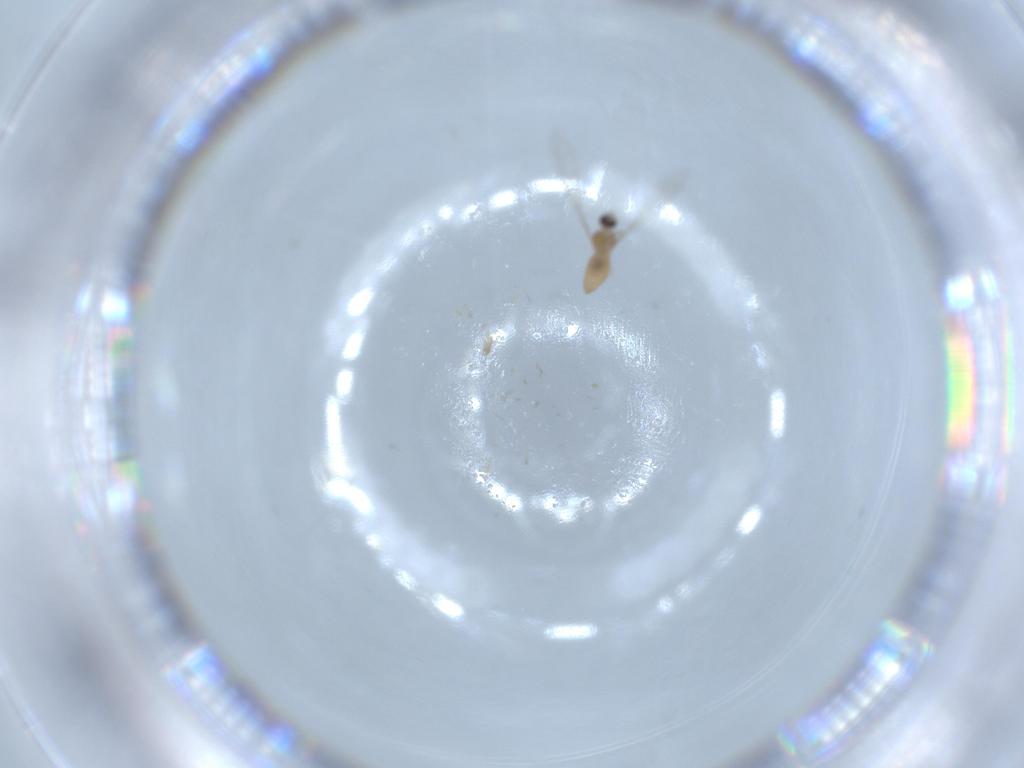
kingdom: Animalia
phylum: Arthropoda
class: Insecta
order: Diptera
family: Cecidomyiidae
